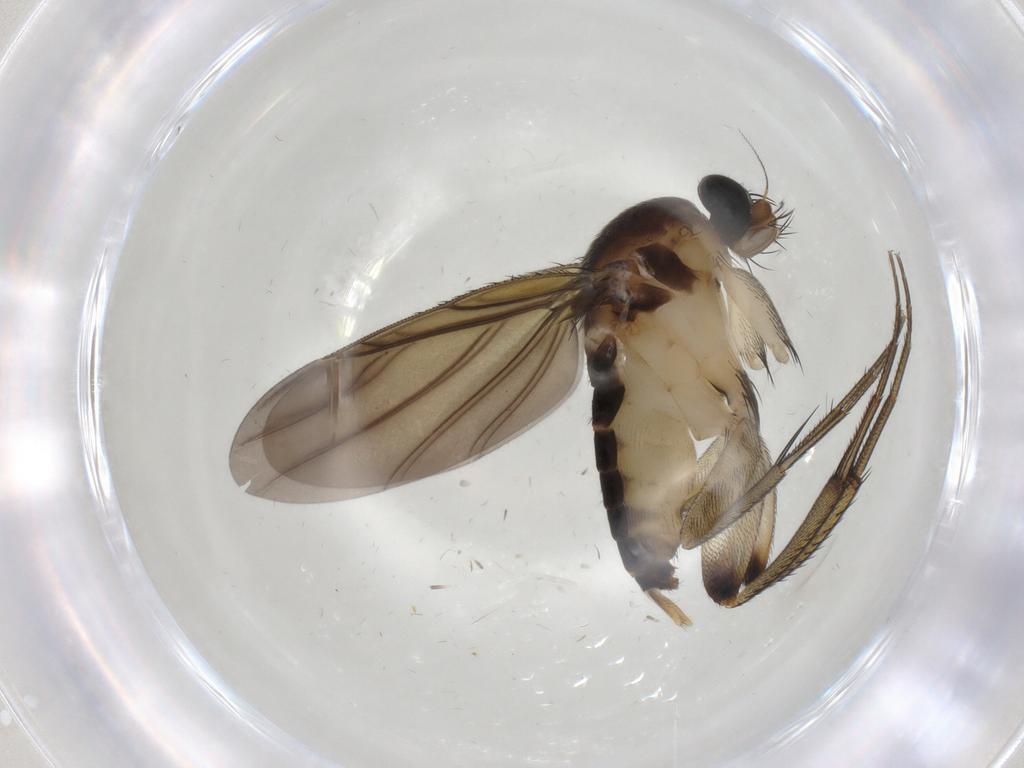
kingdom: Animalia
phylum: Arthropoda
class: Insecta
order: Diptera
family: Phoridae
